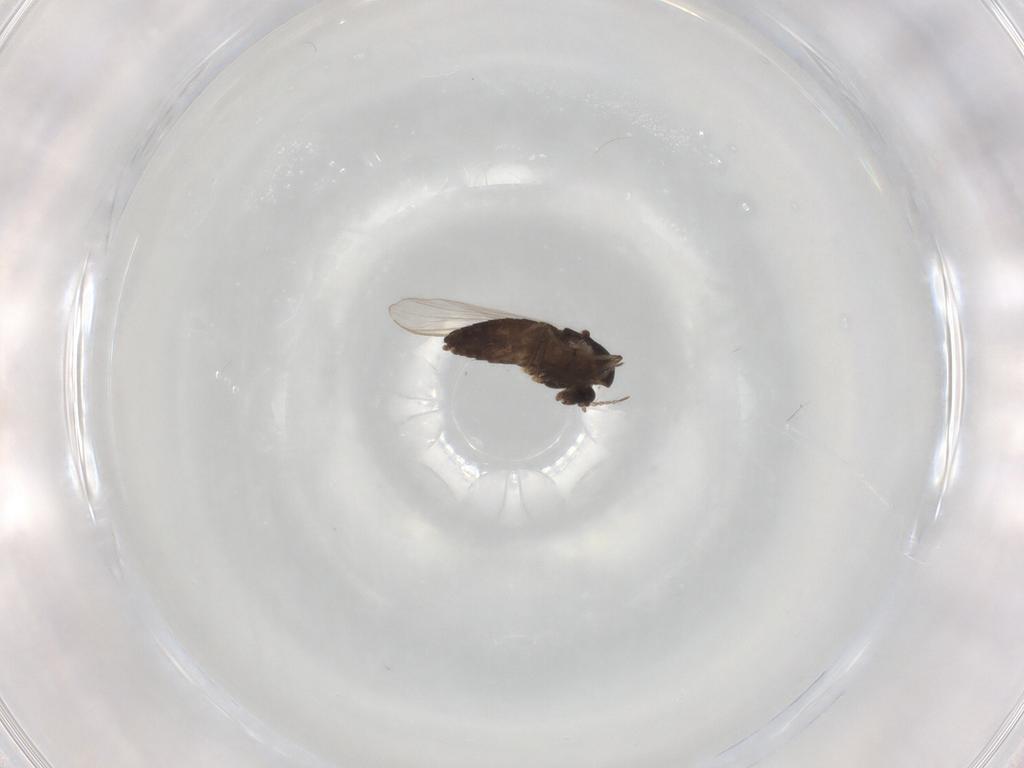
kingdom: Animalia
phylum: Arthropoda
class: Insecta
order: Diptera
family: Chironomidae
